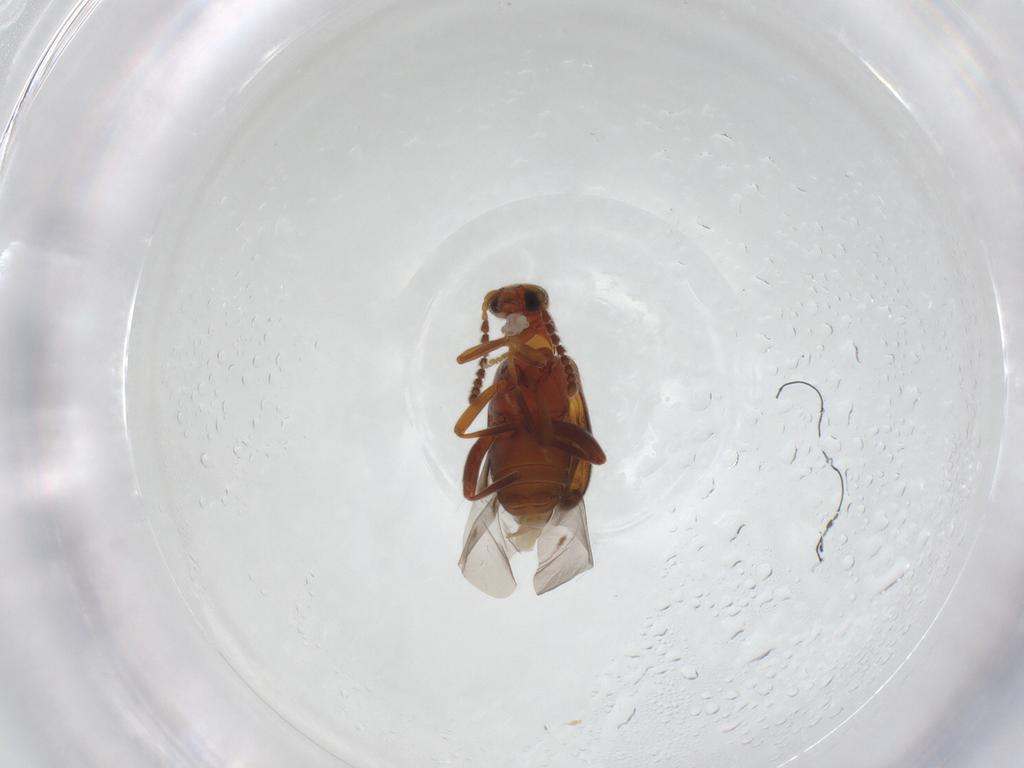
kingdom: Animalia
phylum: Arthropoda
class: Insecta
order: Coleoptera
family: Aderidae
